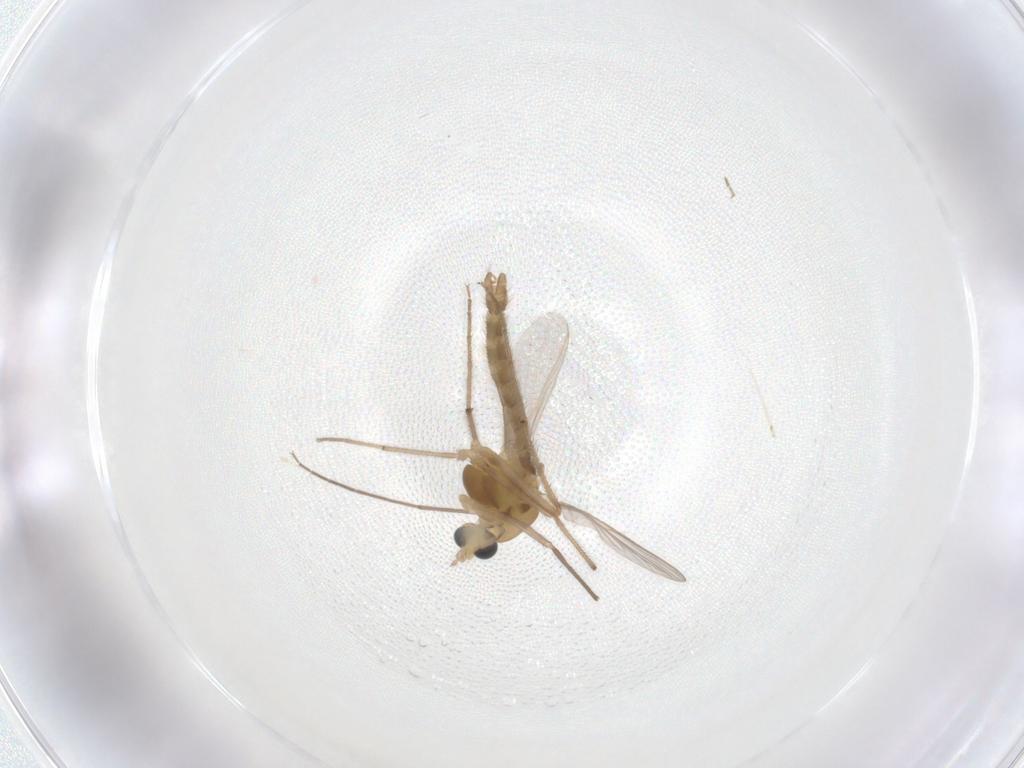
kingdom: Animalia
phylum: Arthropoda
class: Insecta
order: Diptera
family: Chironomidae
